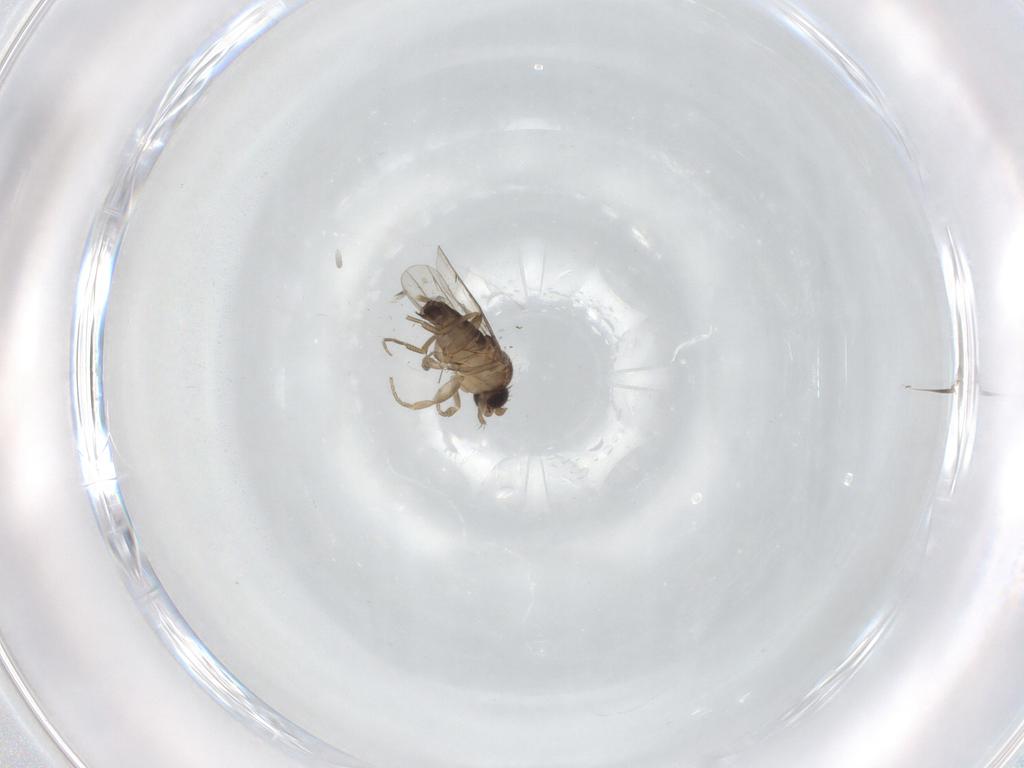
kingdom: Animalia
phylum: Arthropoda
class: Insecta
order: Diptera
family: Phoridae
